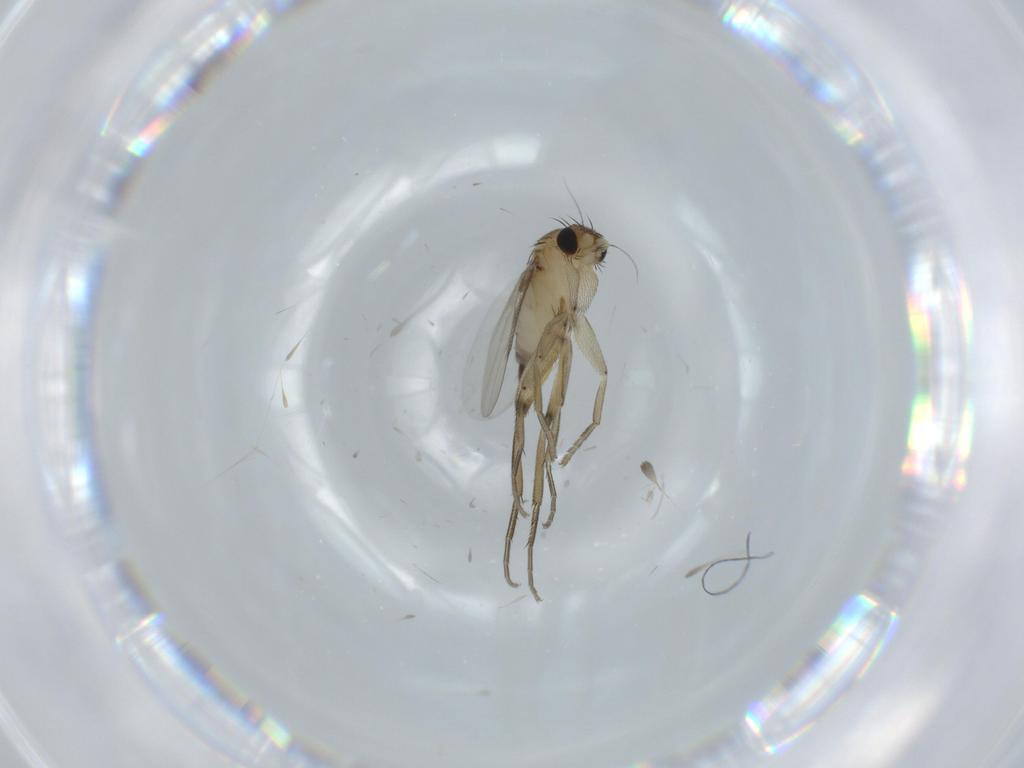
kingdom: Animalia
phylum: Arthropoda
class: Insecta
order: Diptera
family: Phoridae
